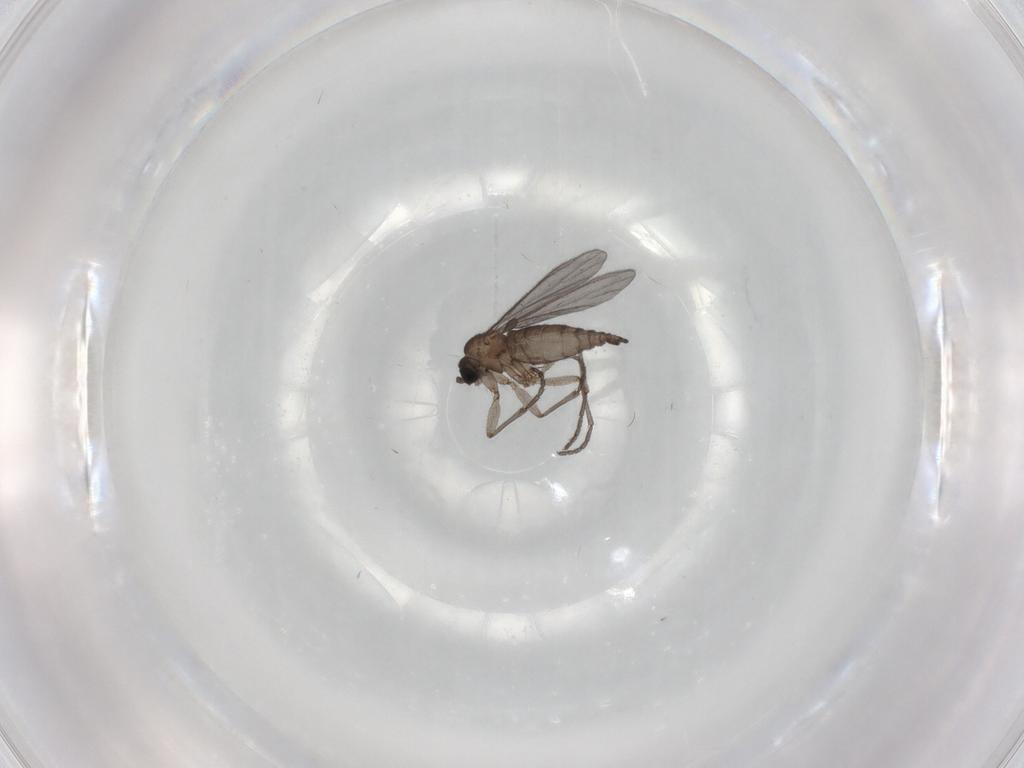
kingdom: Animalia
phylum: Arthropoda
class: Insecta
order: Diptera
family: Sciaridae
